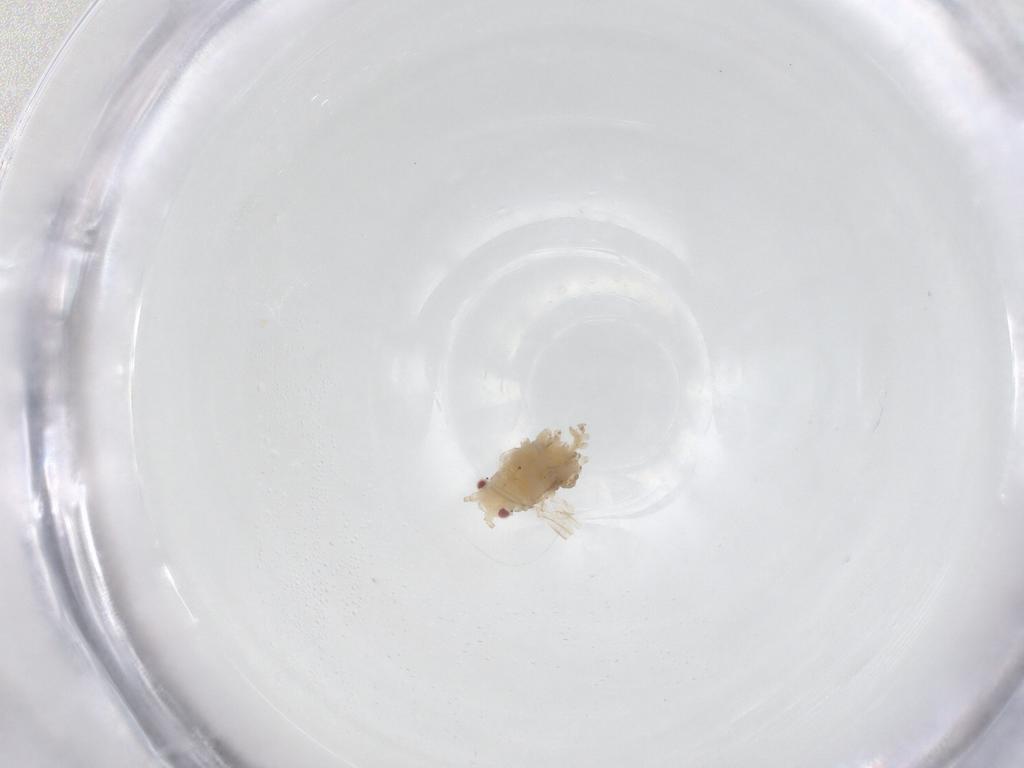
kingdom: Animalia
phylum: Arthropoda
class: Insecta
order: Hemiptera
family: Aphididae
